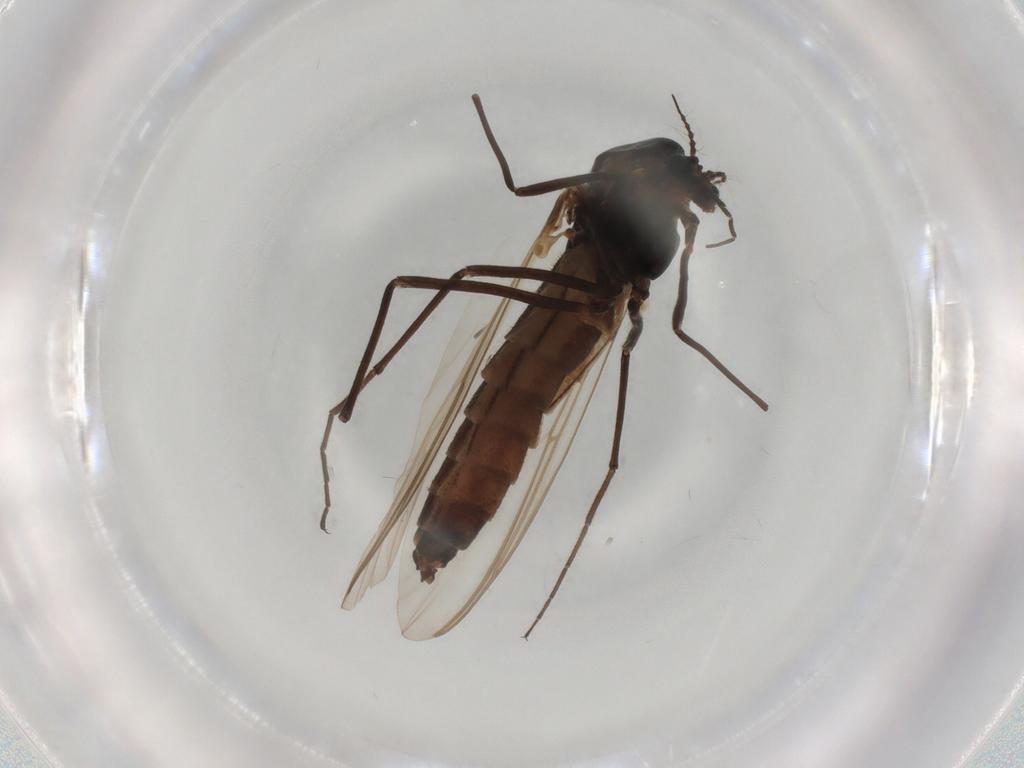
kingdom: Animalia
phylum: Arthropoda
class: Insecta
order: Diptera
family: Chironomidae
